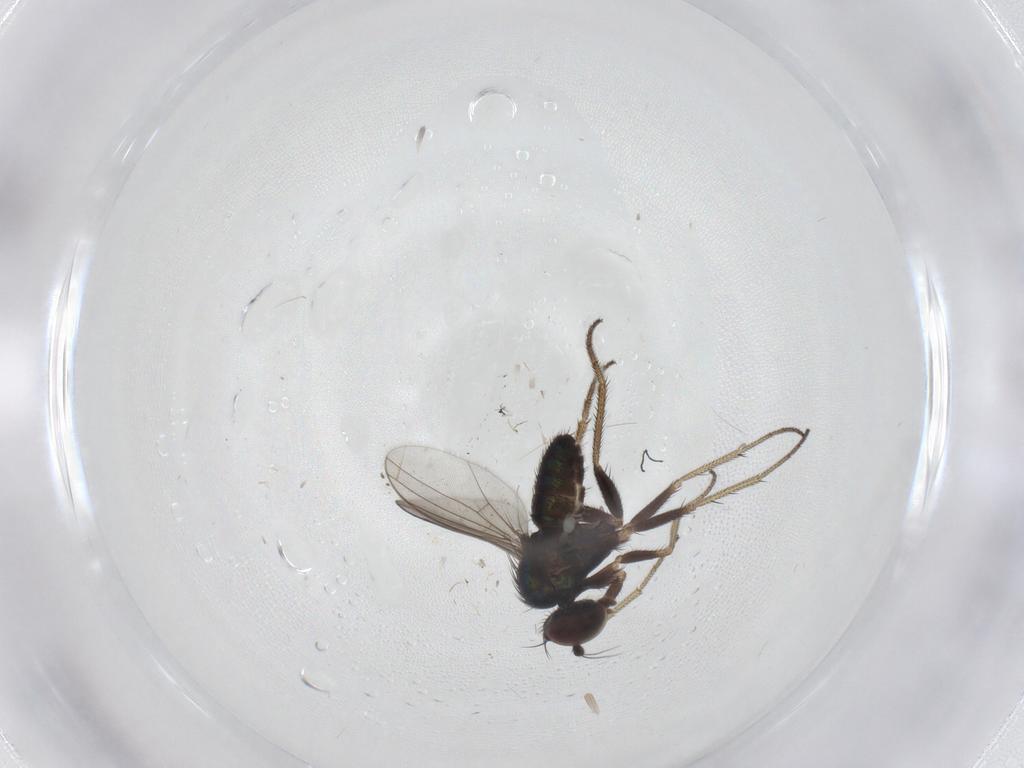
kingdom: Animalia
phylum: Arthropoda
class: Insecta
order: Diptera
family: Dolichopodidae
